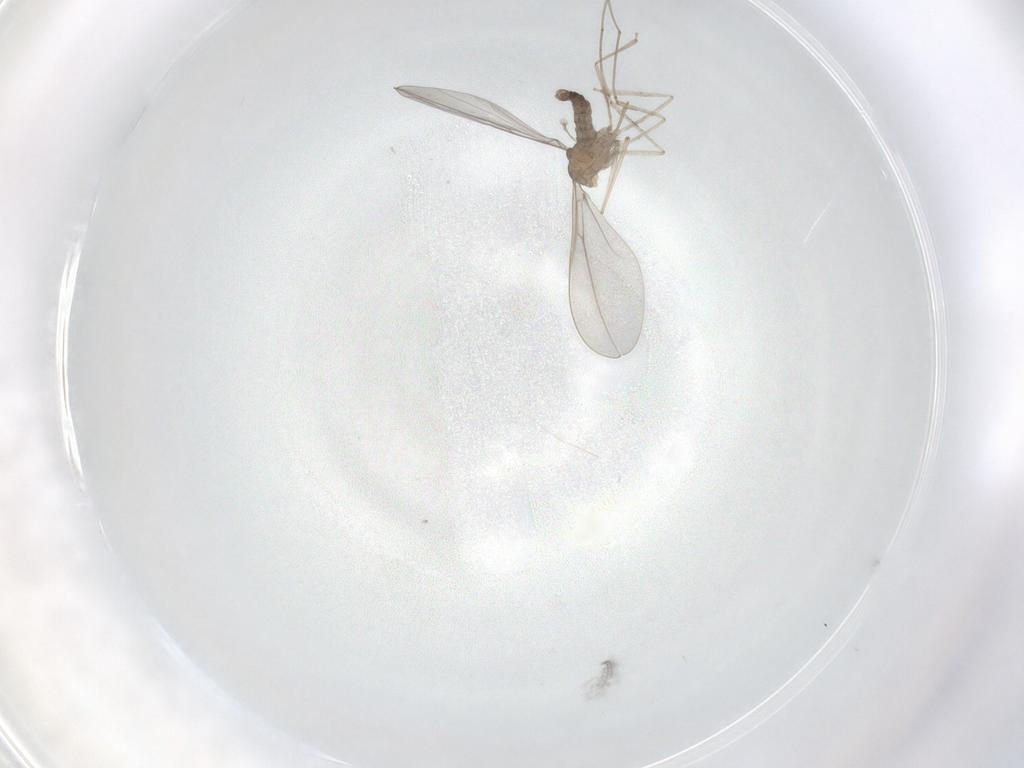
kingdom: Animalia
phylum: Arthropoda
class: Insecta
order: Diptera
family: Cecidomyiidae
